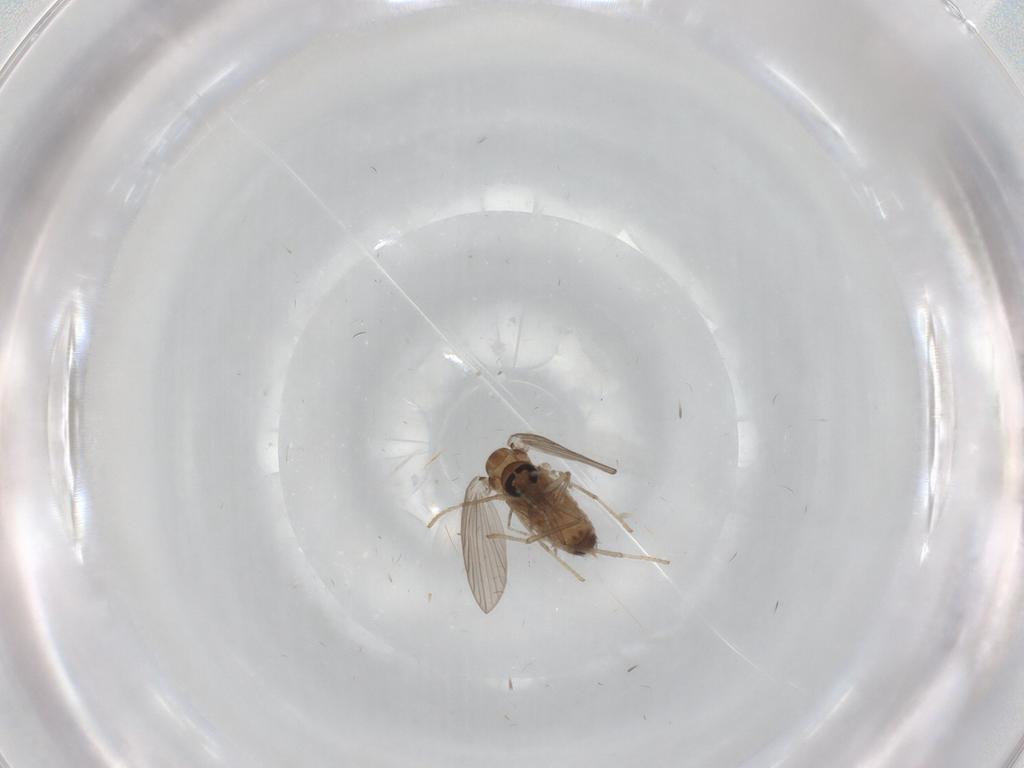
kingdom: Animalia
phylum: Arthropoda
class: Insecta
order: Diptera
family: Psychodidae
